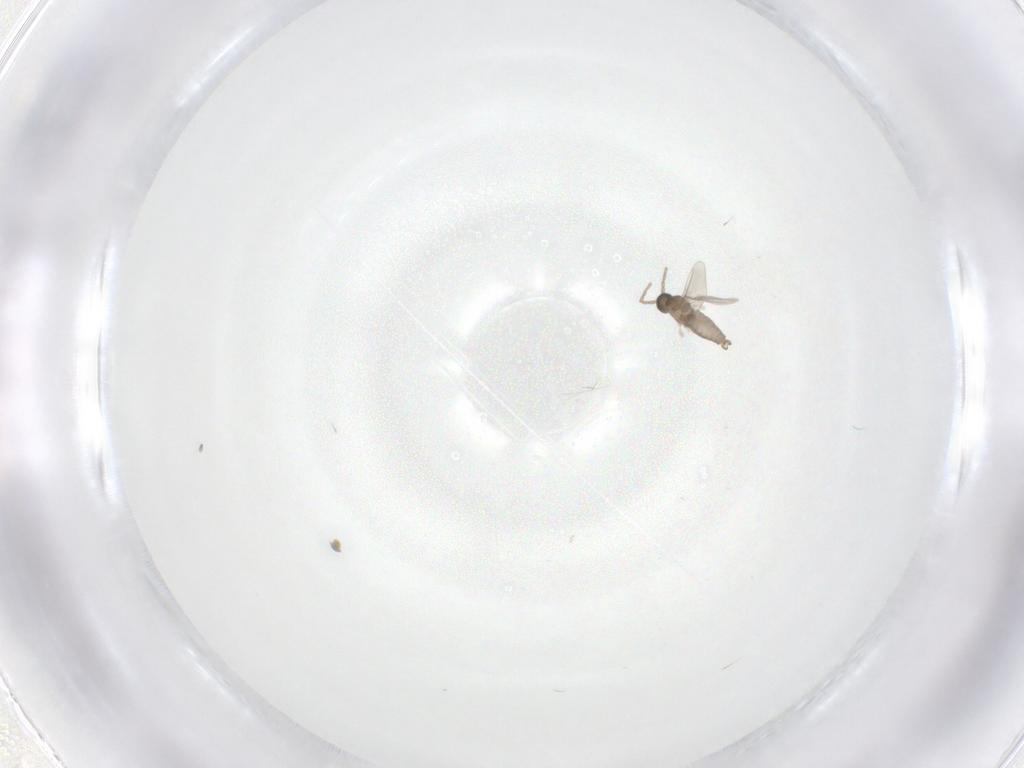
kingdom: Animalia
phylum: Arthropoda
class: Insecta
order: Diptera
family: Cecidomyiidae
